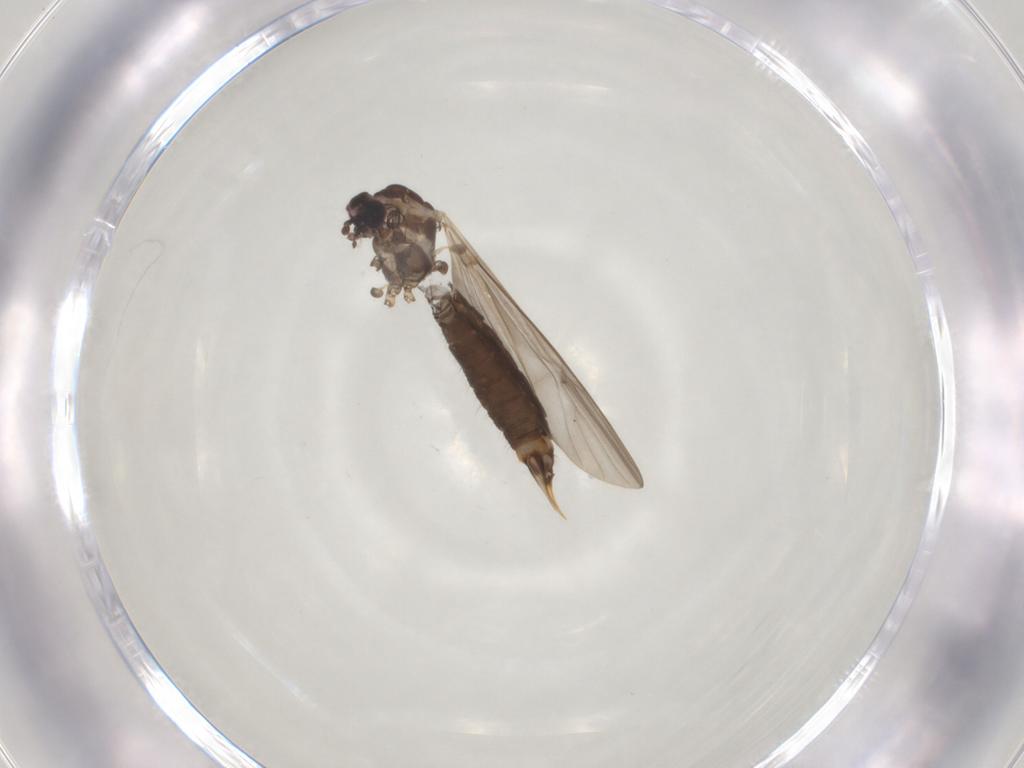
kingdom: Animalia
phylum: Arthropoda
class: Insecta
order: Diptera
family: Limoniidae
